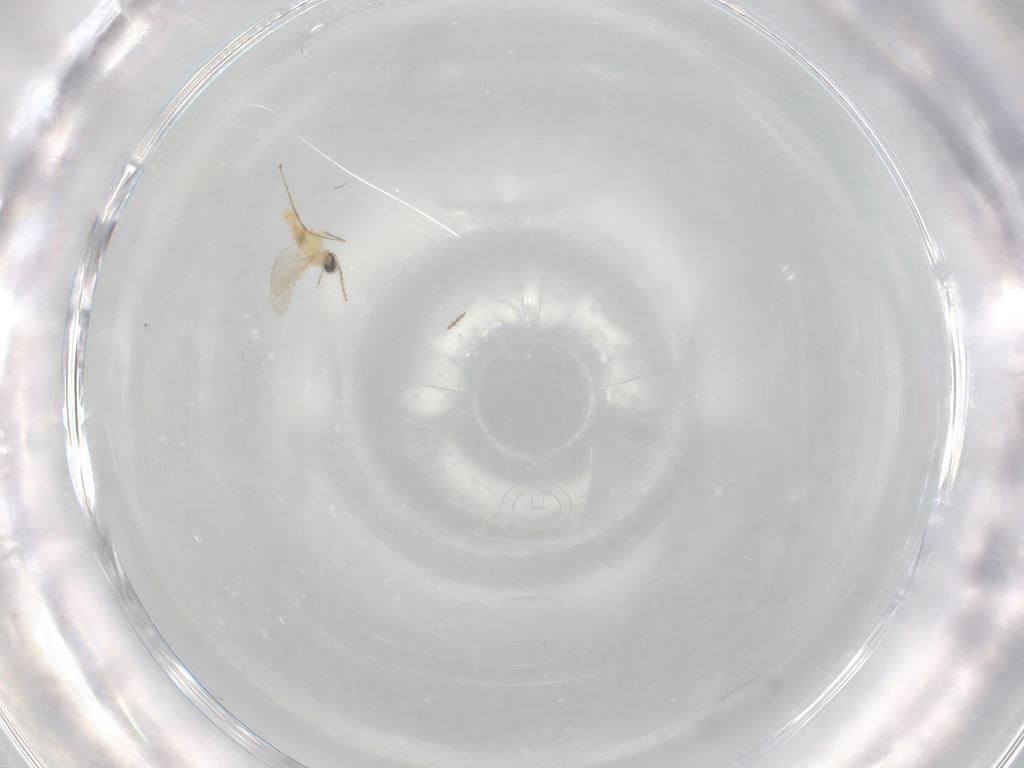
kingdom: Animalia
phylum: Arthropoda
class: Insecta
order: Diptera
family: Cecidomyiidae
